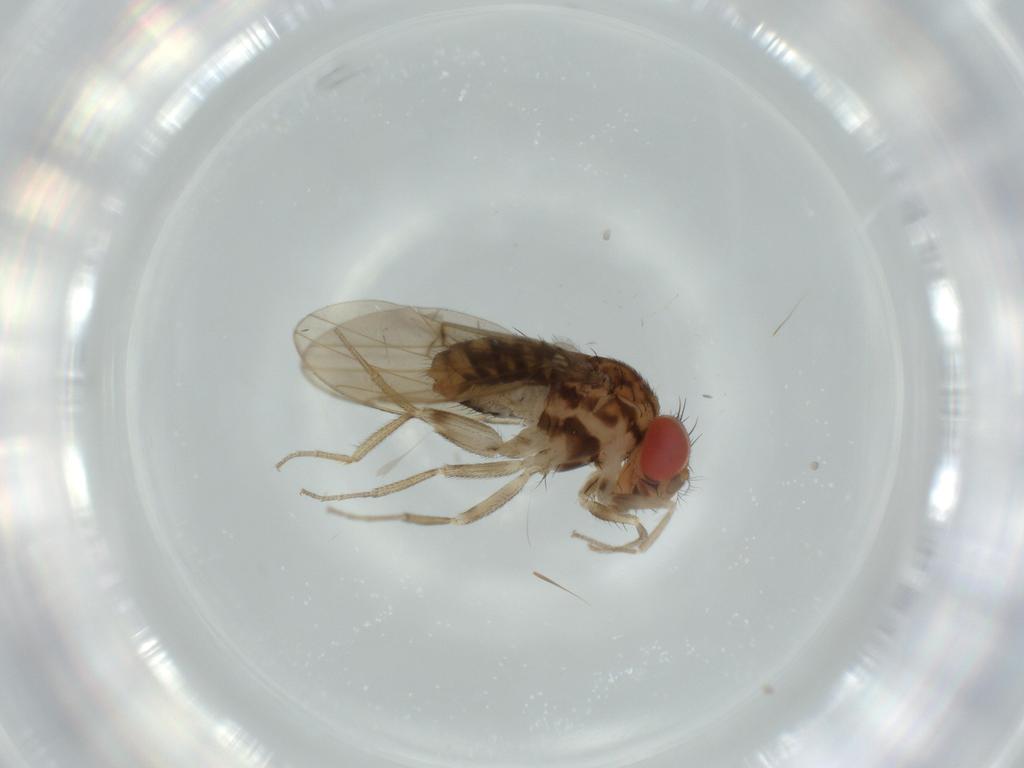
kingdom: Animalia
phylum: Arthropoda
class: Insecta
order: Diptera
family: Drosophilidae
